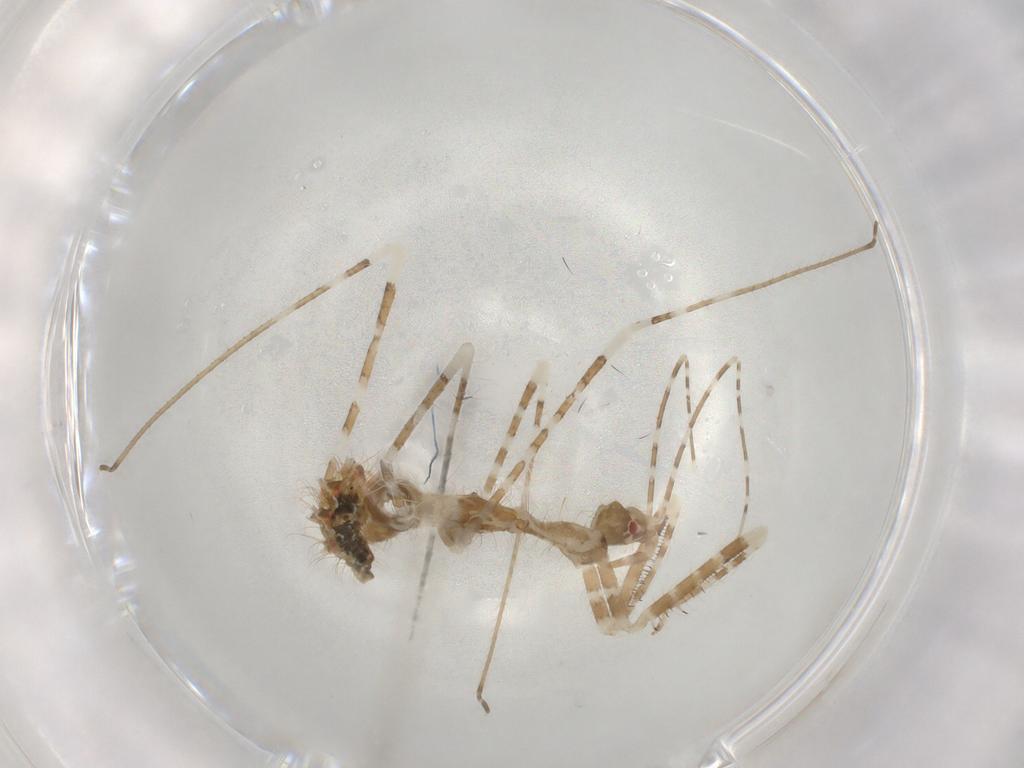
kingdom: Animalia
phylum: Arthropoda
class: Insecta
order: Hemiptera
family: Reduviidae
